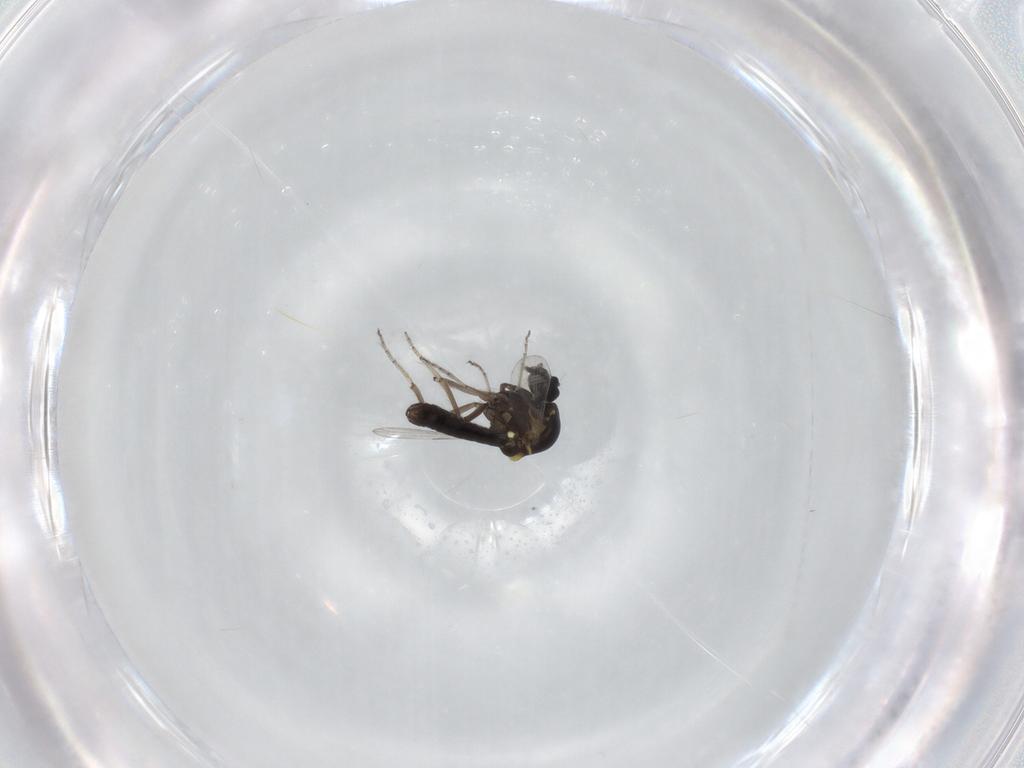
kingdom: Animalia
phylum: Arthropoda
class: Insecta
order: Diptera
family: Ceratopogonidae
